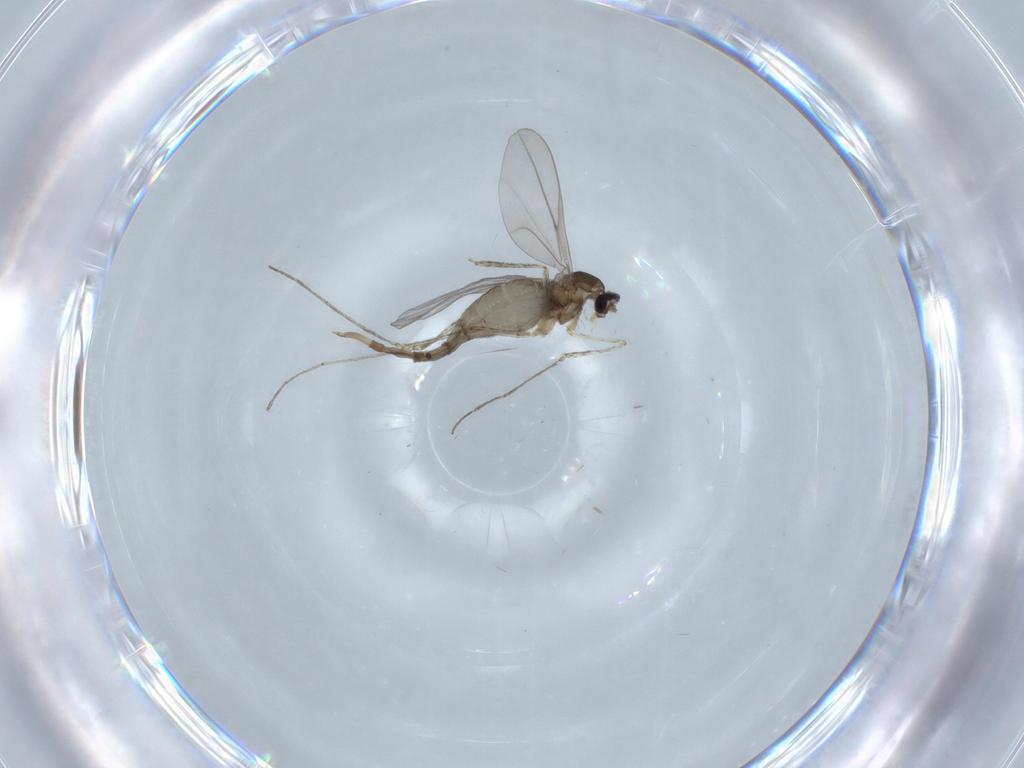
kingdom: Animalia
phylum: Arthropoda
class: Insecta
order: Diptera
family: Cecidomyiidae
